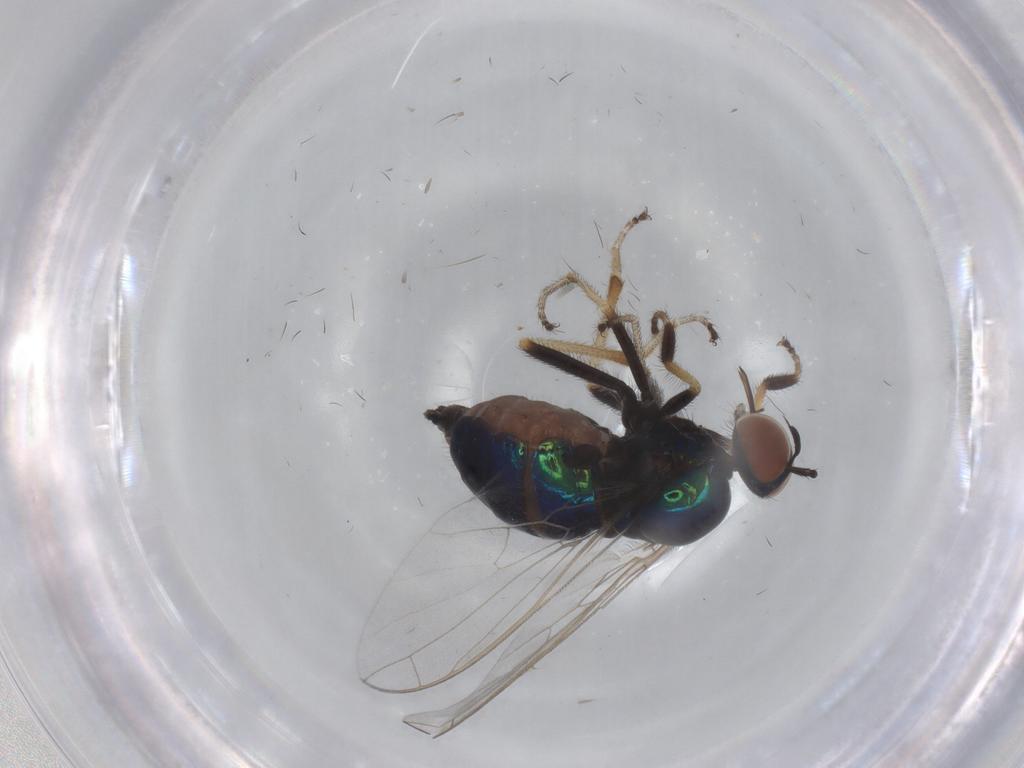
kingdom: Animalia
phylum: Arthropoda
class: Insecta
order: Diptera
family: Empididae
